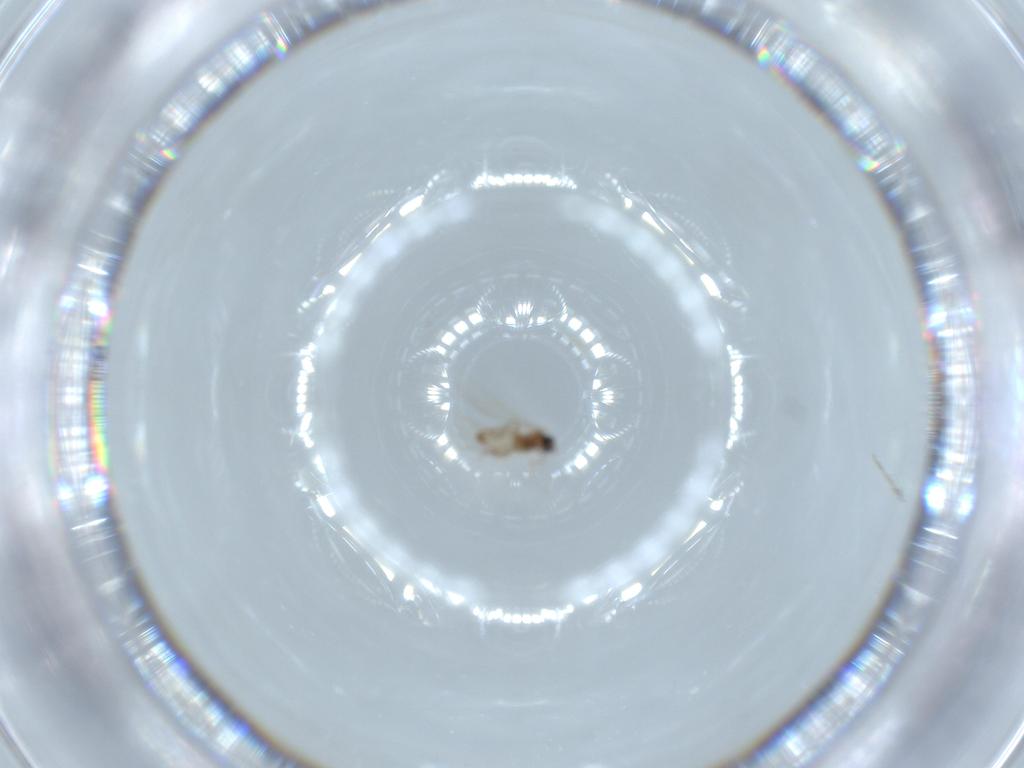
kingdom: Animalia
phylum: Arthropoda
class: Insecta
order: Diptera
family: Cecidomyiidae
